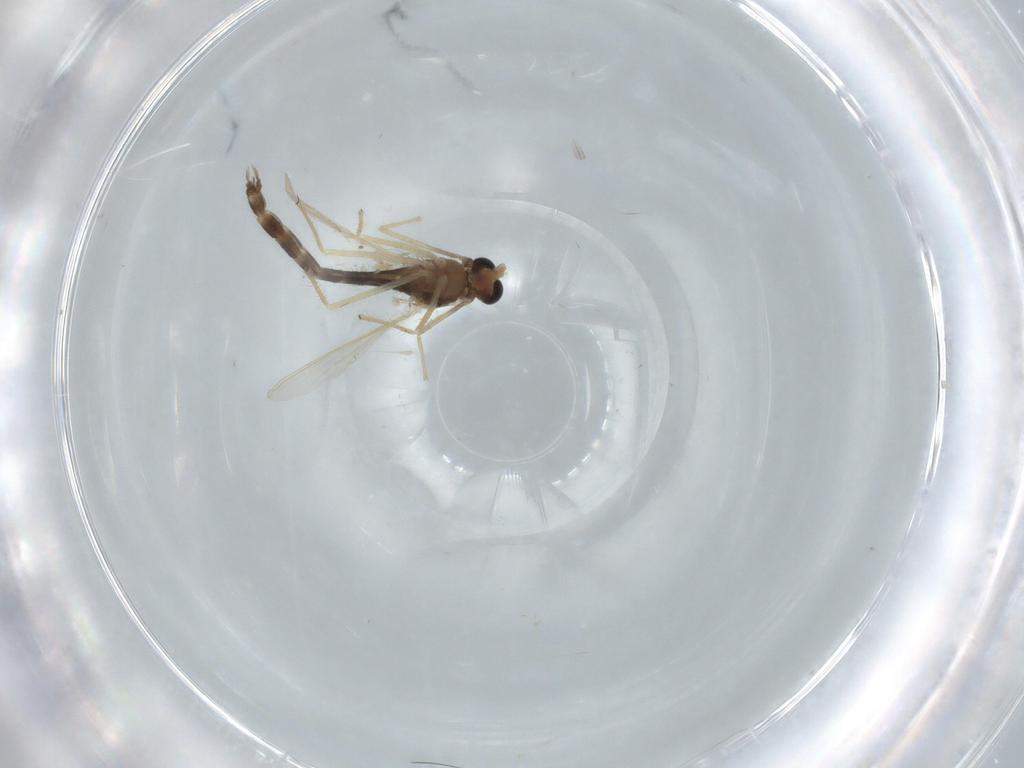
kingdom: Animalia
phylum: Arthropoda
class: Insecta
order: Diptera
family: Chironomidae
